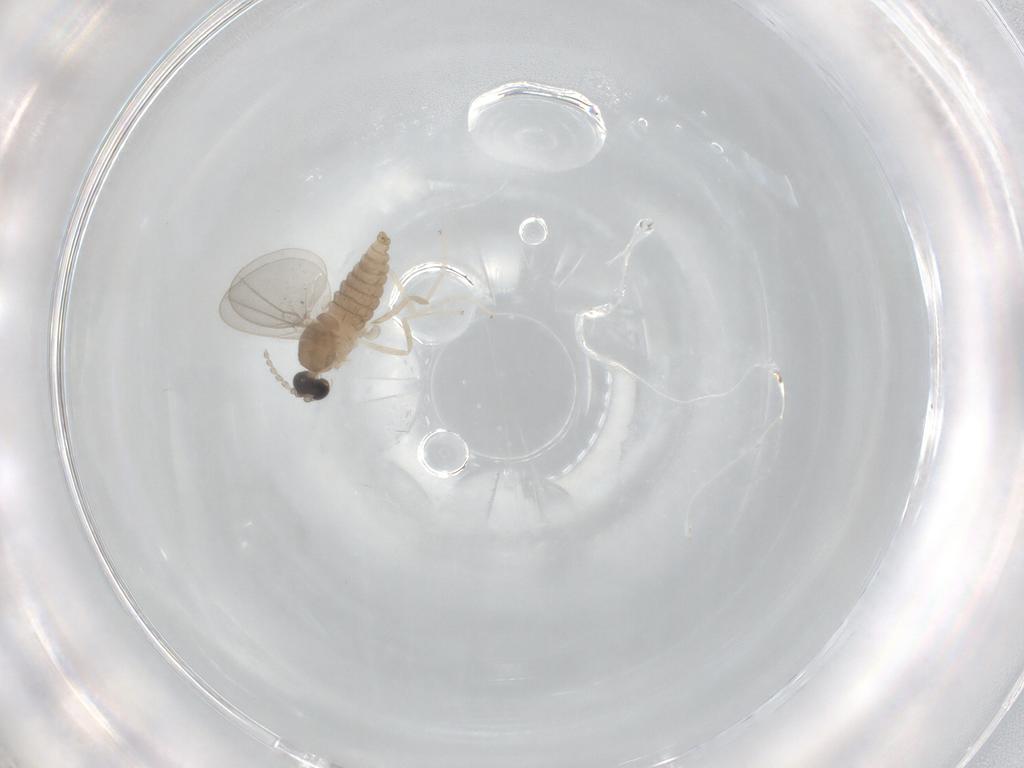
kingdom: Animalia
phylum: Arthropoda
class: Insecta
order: Diptera
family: Cecidomyiidae
